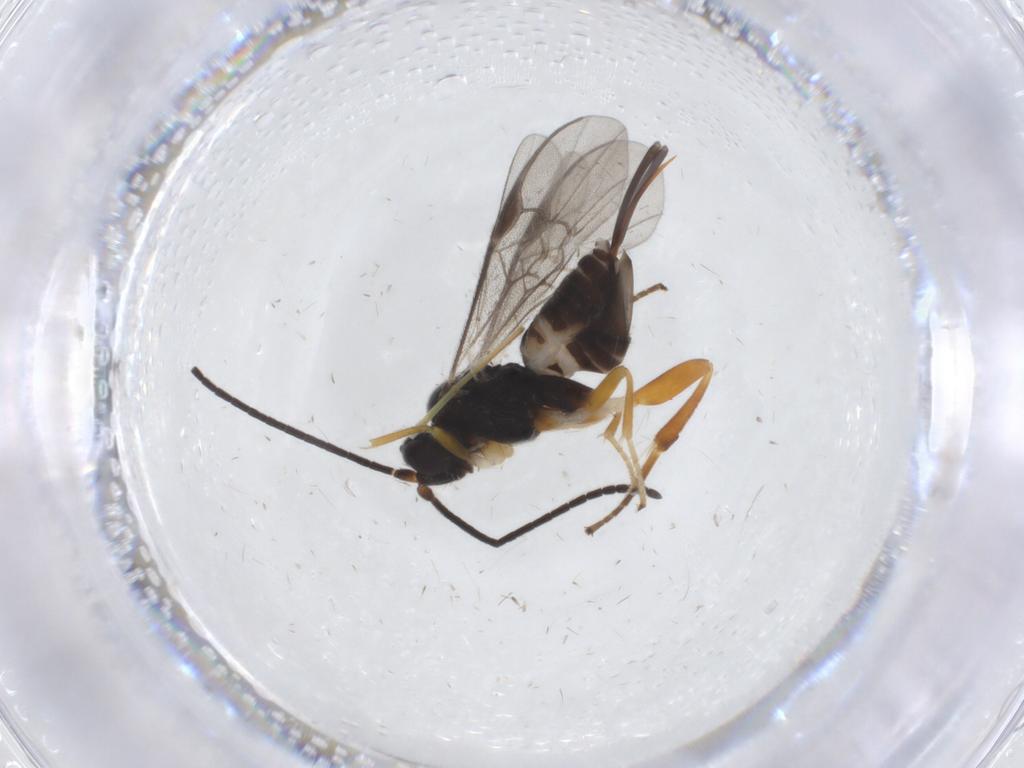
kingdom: Animalia
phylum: Arthropoda
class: Insecta
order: Hymenoptera
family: Braconidae
